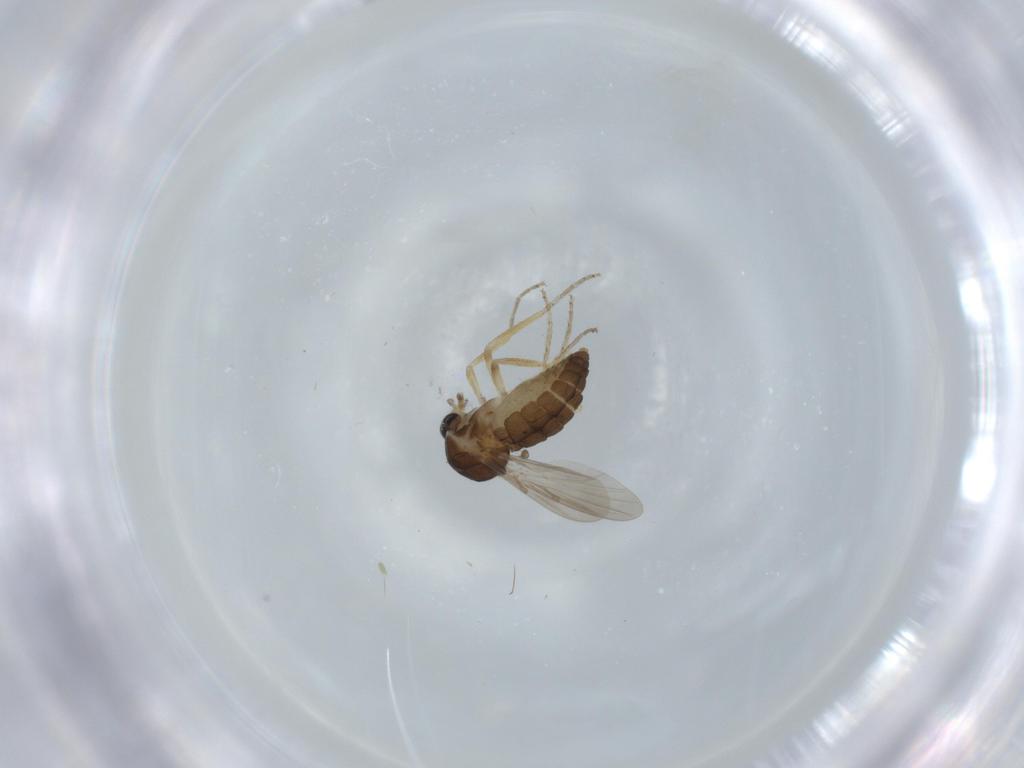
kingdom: Animalia
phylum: Arthropoda
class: Insecta
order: Diptera
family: Ceratopogonidae
